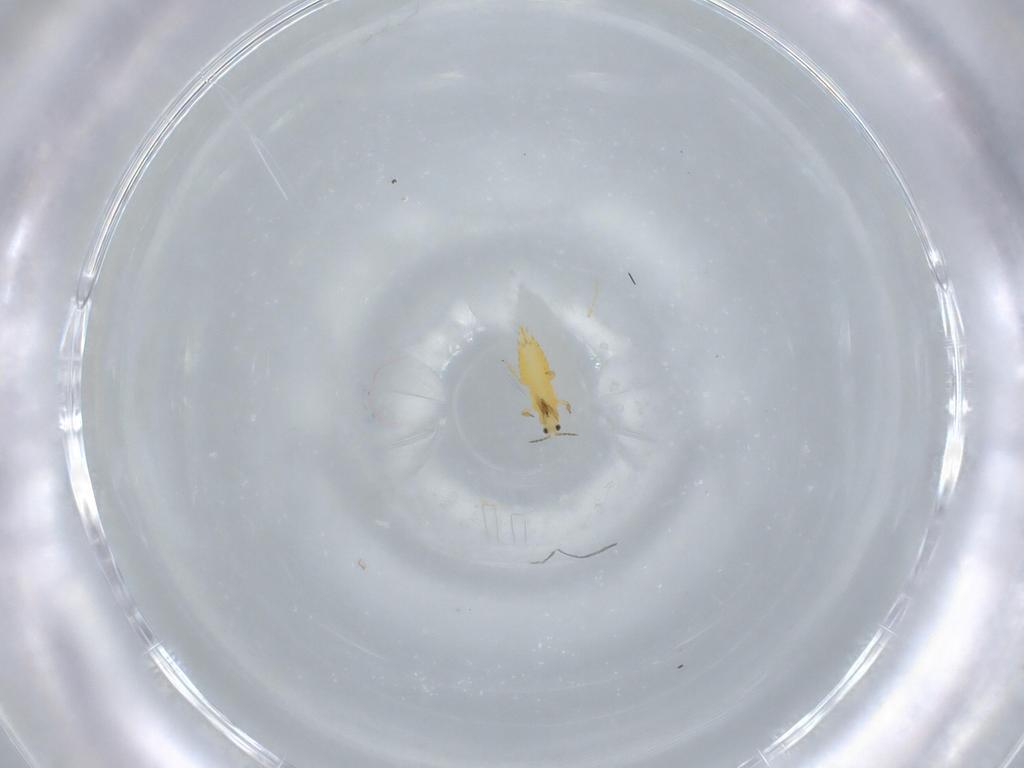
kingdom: Animalia
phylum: Arthropoda
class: Insecta
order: Thysanoptera
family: Thripidae
